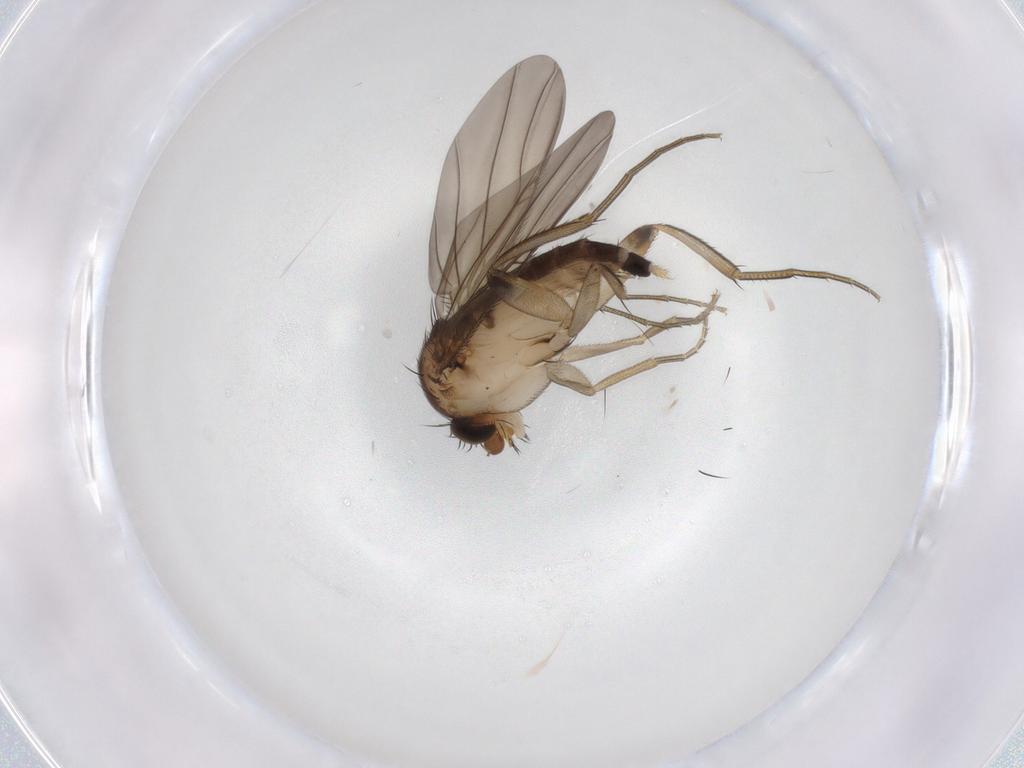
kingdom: Animalia
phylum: Arthropoda
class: Insecta
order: Diptera
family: Phoridae
